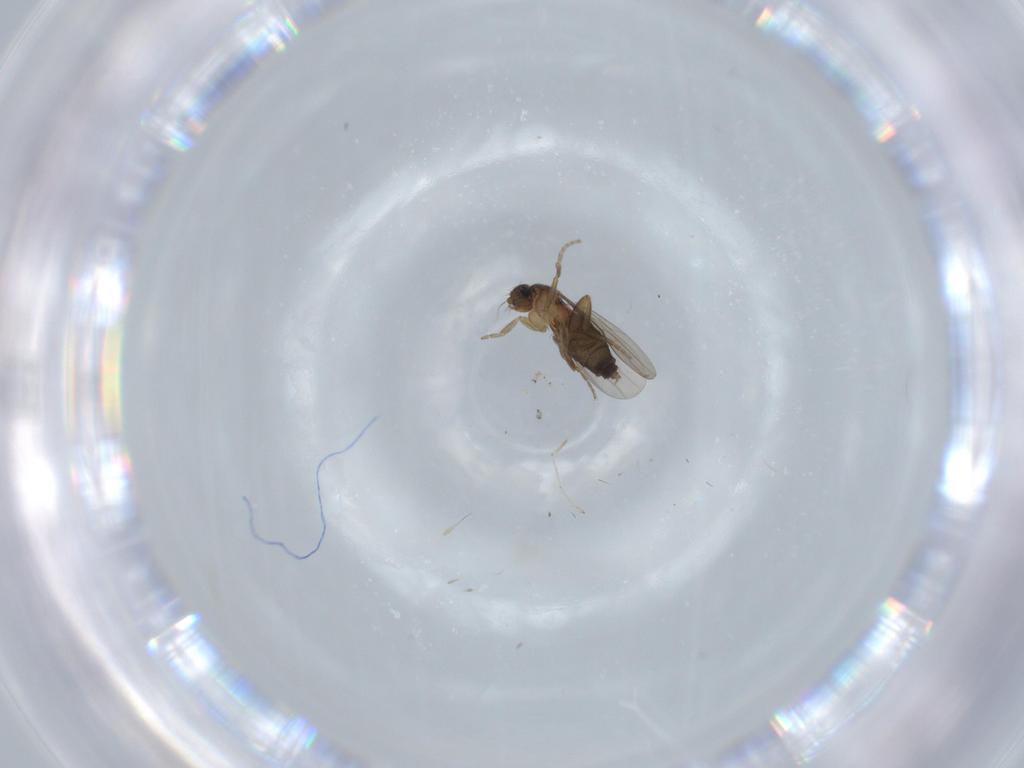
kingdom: Animalia
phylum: Arthropoda
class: Insecta
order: Diptera
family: Phoridae
